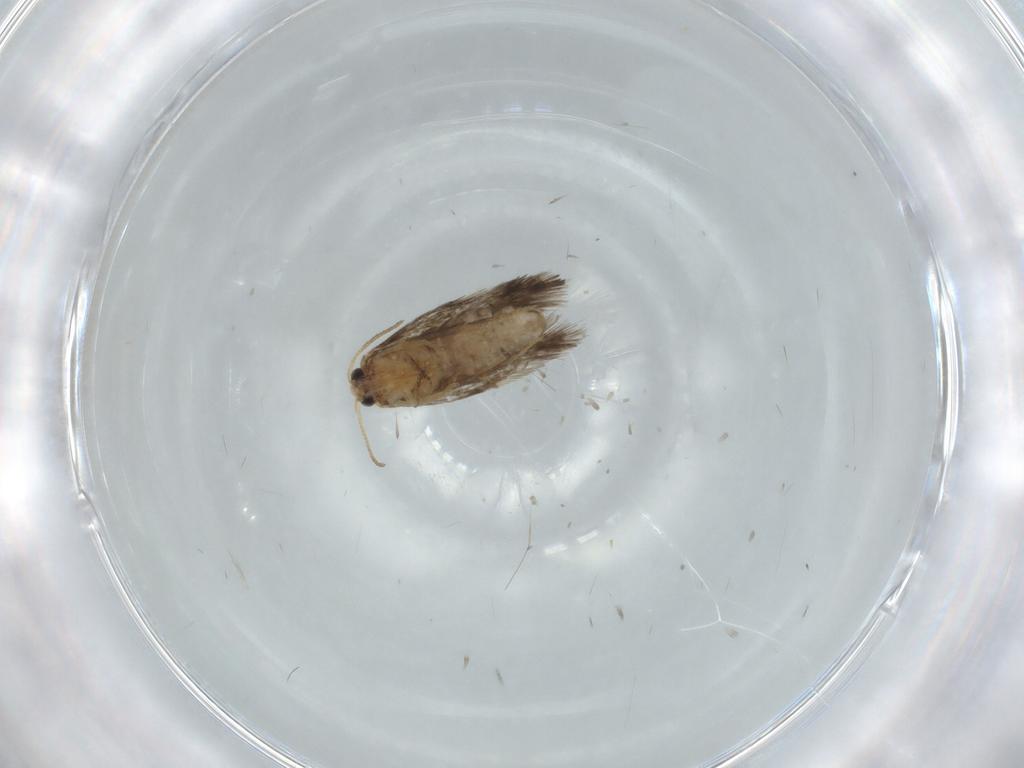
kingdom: Animalia
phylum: Arthropoda
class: Insecta
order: Lepidoptera
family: Nepticulidae
